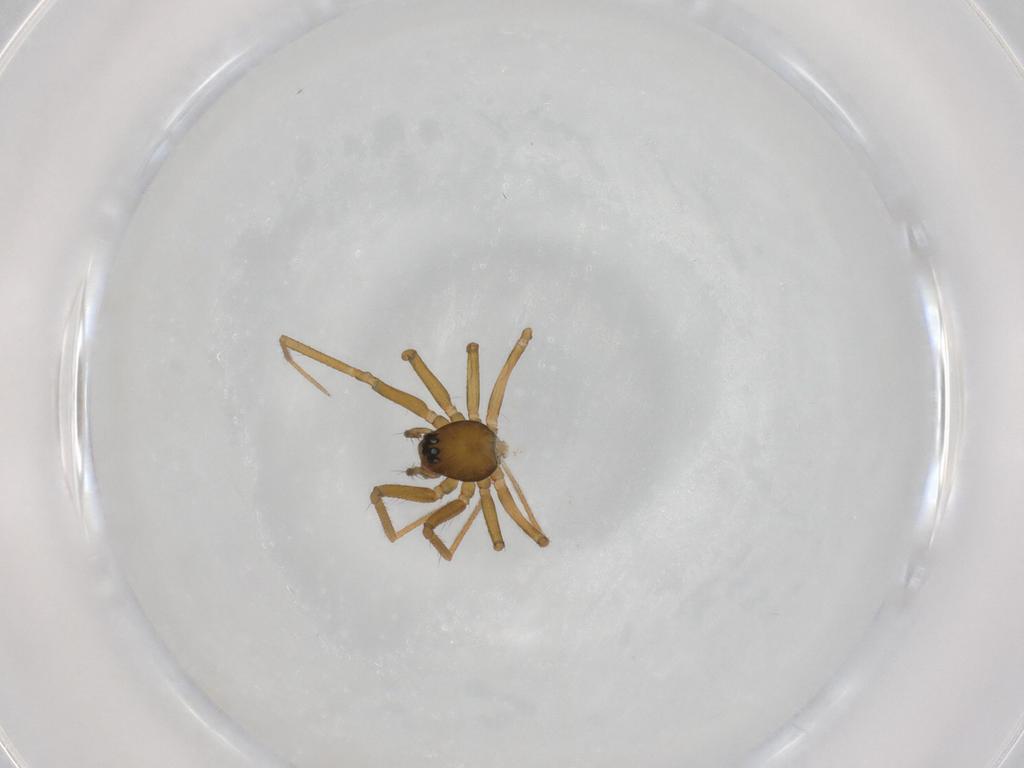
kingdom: Animalia
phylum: Arthropoda
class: Arachnida
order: Araneae
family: Linyphiidae
